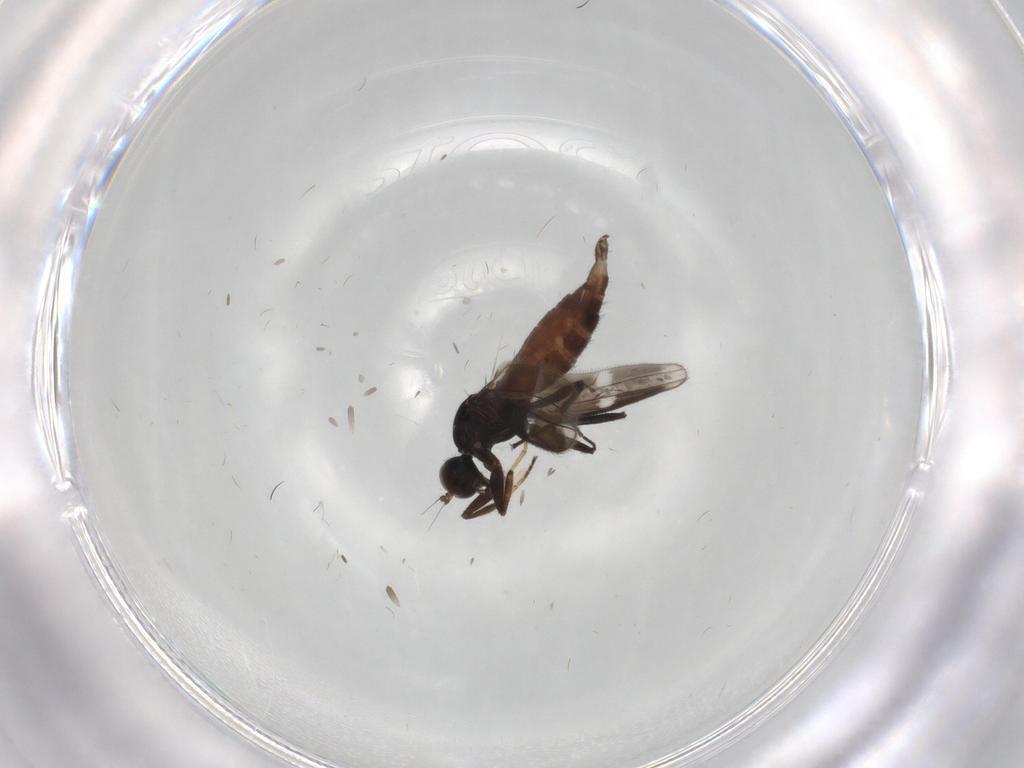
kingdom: Animalia
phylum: Arthropoda
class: Insecta
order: Diptera
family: Hybotidae
